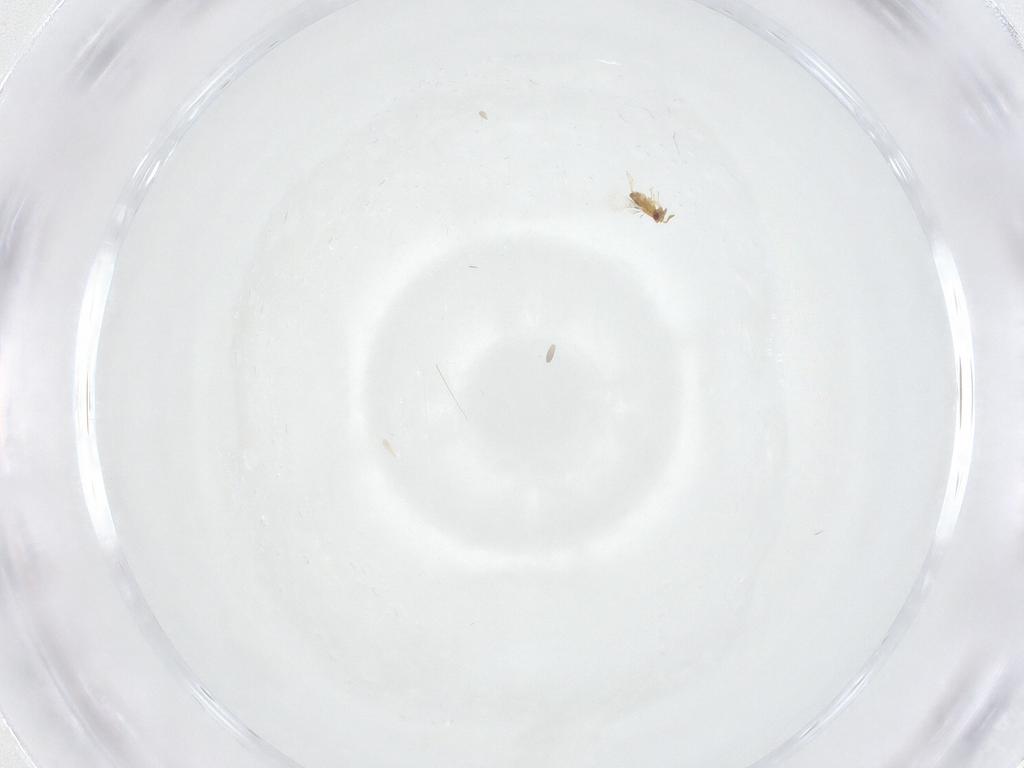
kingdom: Animalia
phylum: Arthropoda
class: Insecta
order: Hymenoptera
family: Trichogrammatidae
